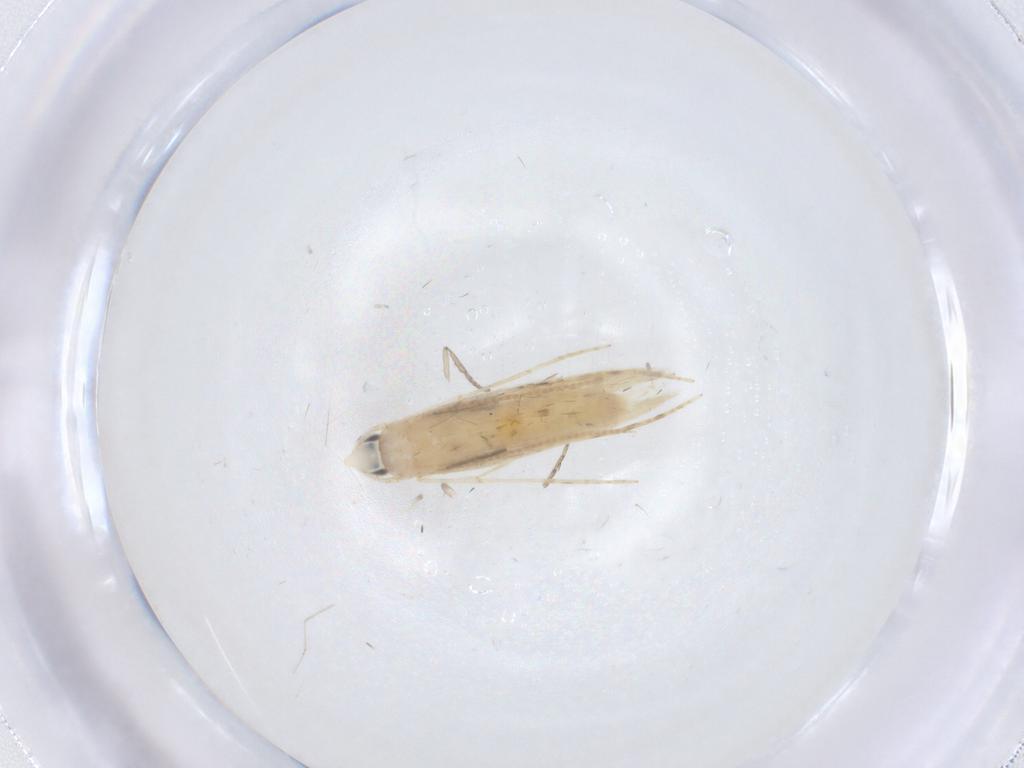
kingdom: Animalia
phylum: Arthropoda
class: Insecta
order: Lepidoptera
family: Tineidae
